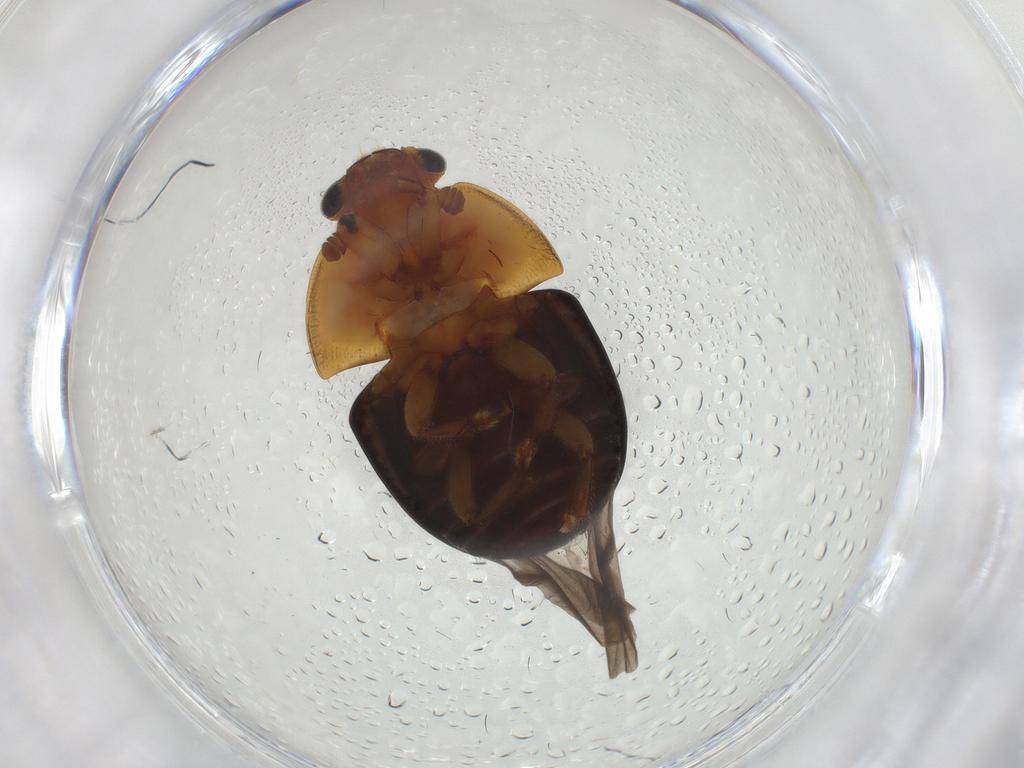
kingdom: Animalia
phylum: Arthropoda
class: Insecta
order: Coleoptera
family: Nitidulidae
